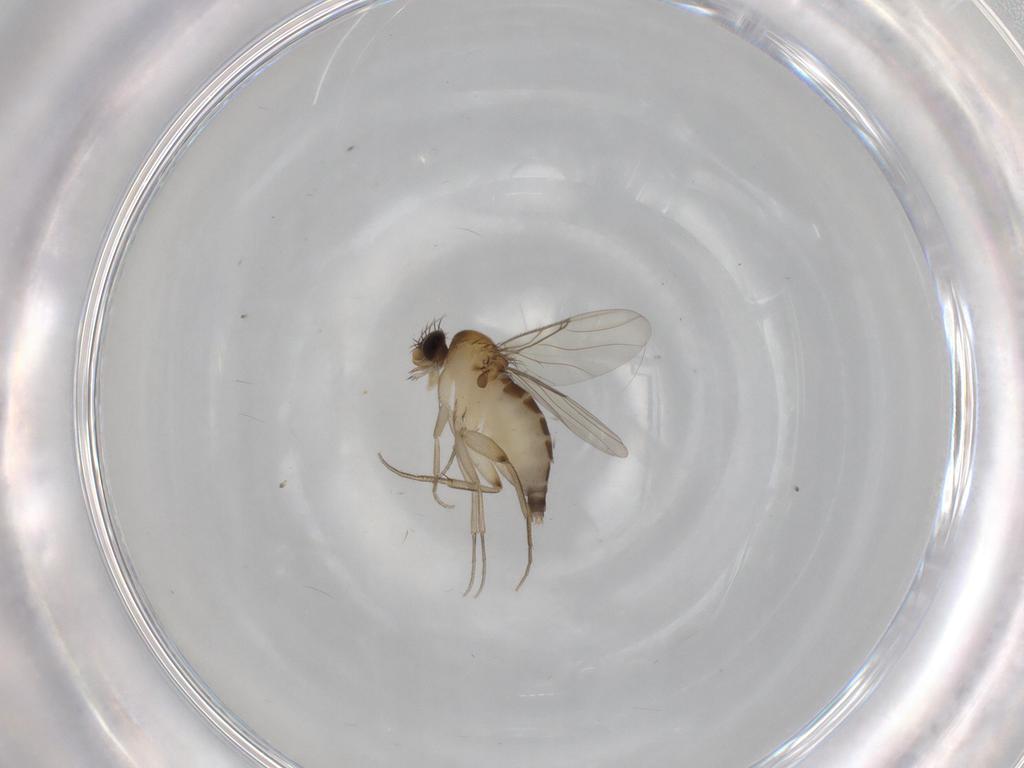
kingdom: Animalia
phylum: Arthropoda
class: Insecta
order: Diptera
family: Phoridae
